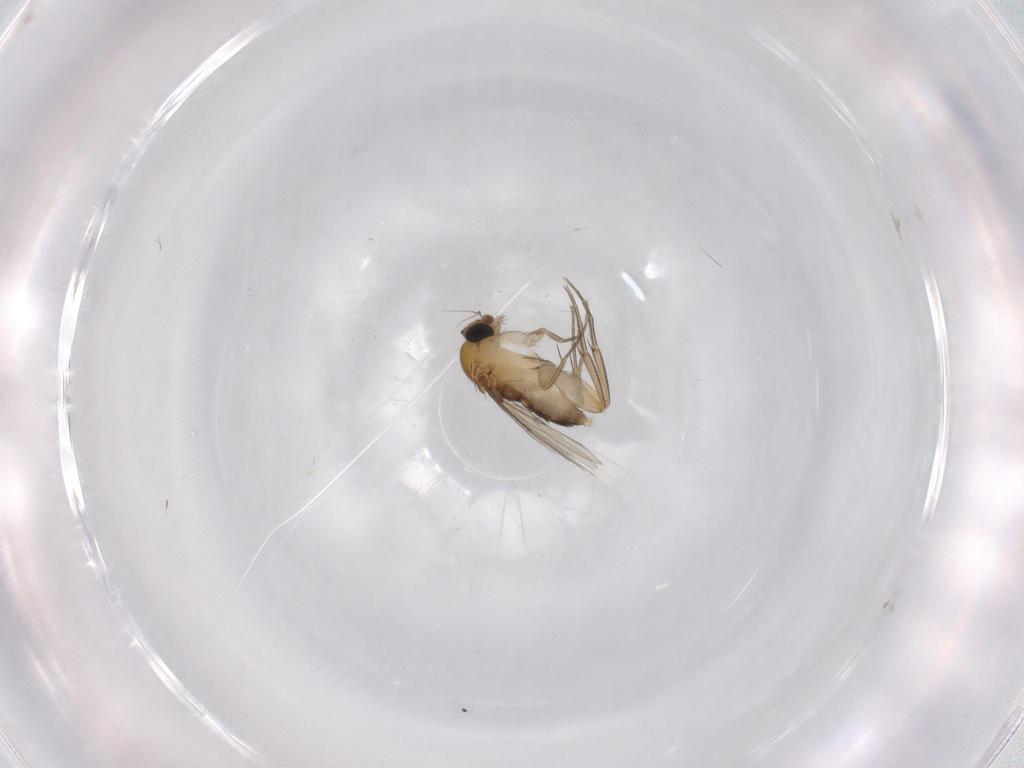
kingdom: Animalia
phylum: Arthropoda
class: Insecta
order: Diptera
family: Phoridae
